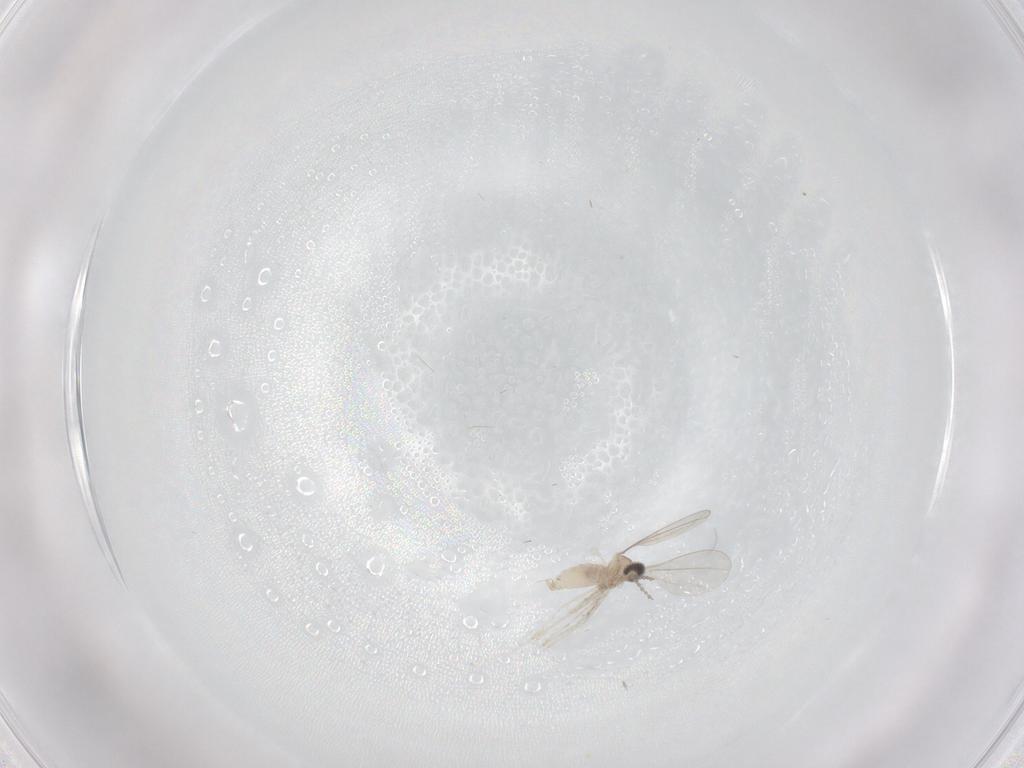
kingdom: Animalia
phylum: Arthropoda
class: Insecta
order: Diptera
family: Cecidomyiidae
